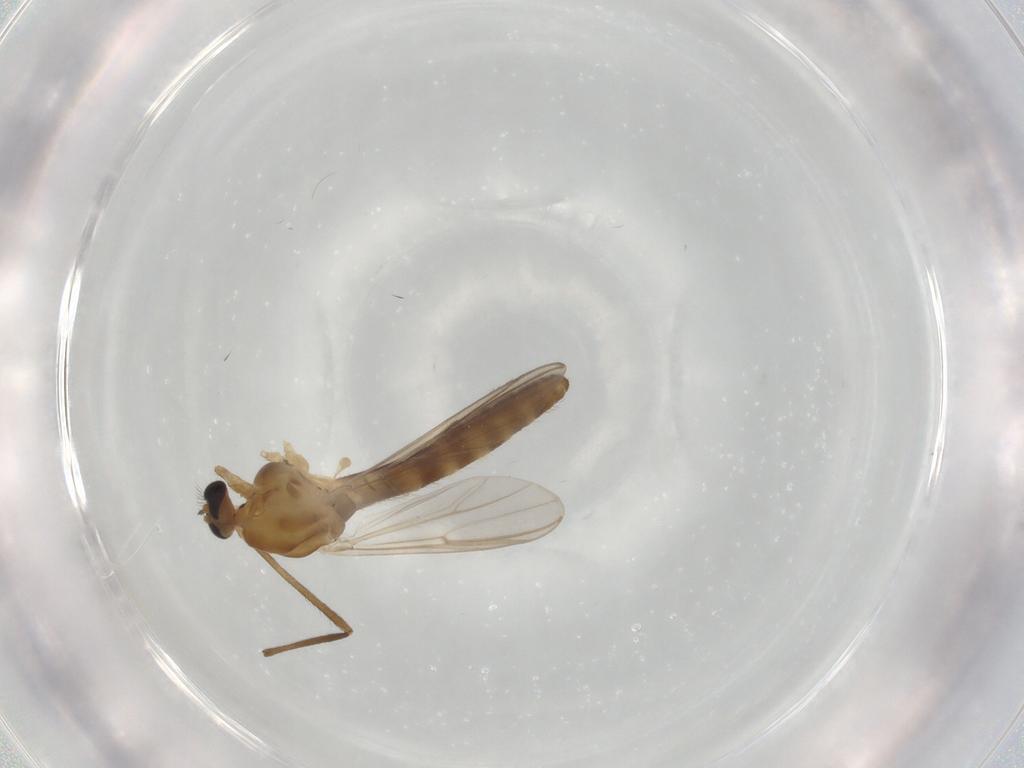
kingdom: Animalia
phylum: Arthropoda
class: Insecta
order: Diptera
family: Chironomidae
